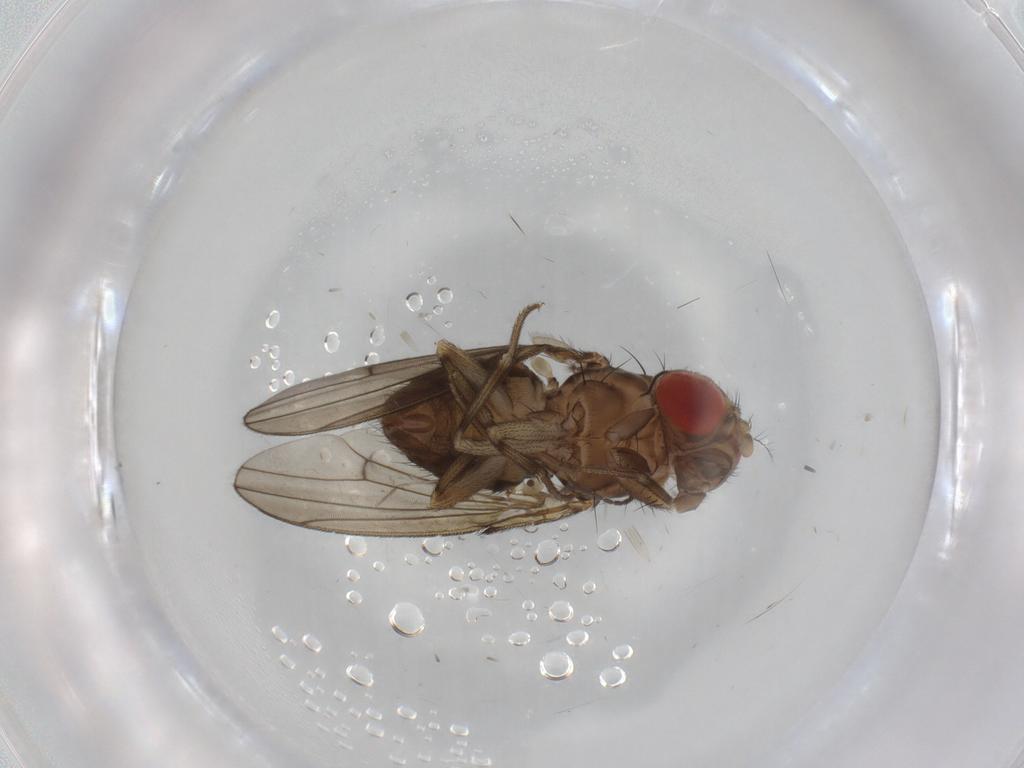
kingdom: Animalia
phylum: Arthropoda
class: Insecta
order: Diptera
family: Drosophilidae
